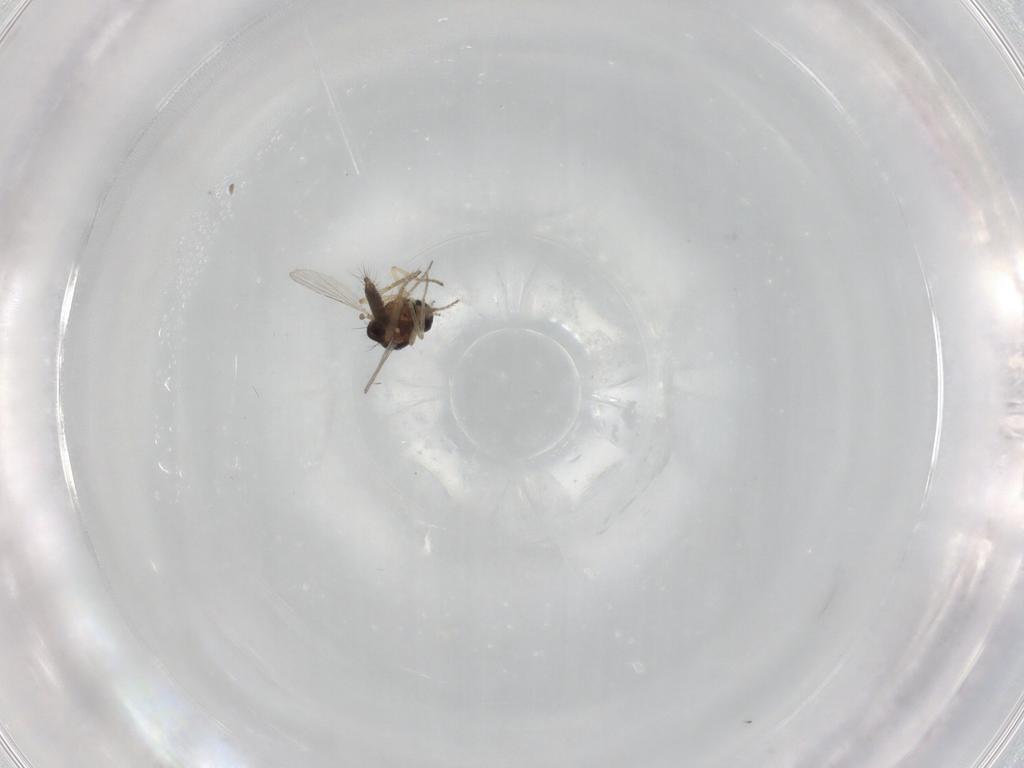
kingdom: Animalia
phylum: Arthropoda
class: Insecta
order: Diptera
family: Ceratopogonidae
